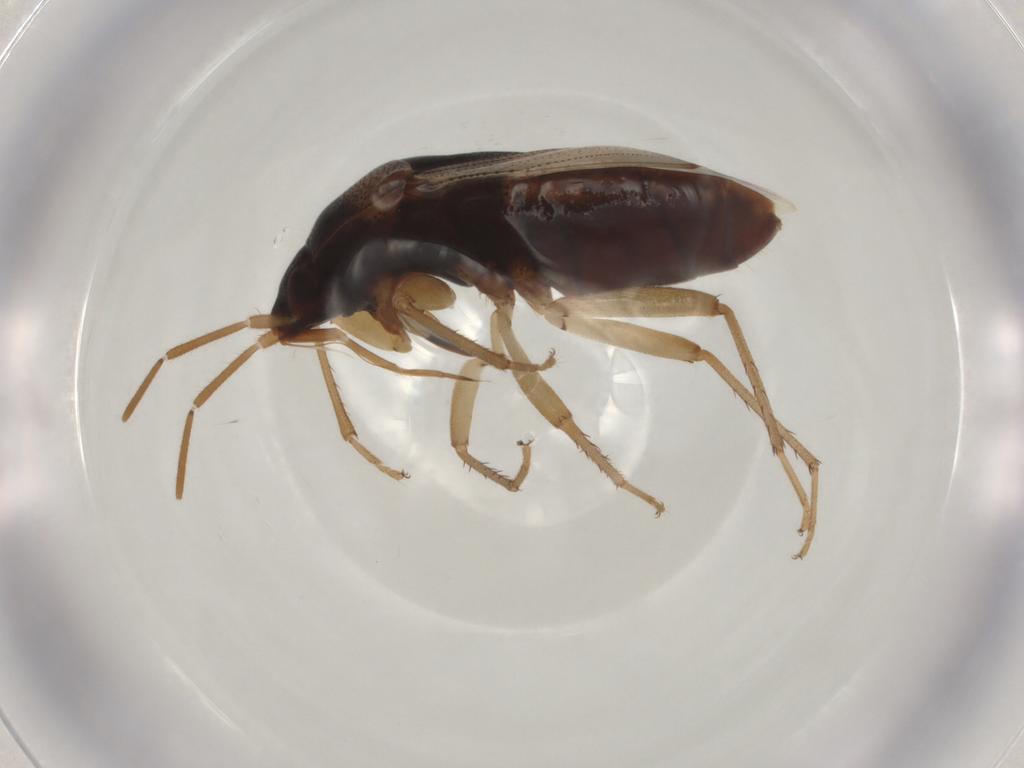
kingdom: Animalia
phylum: Arthropoda
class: Insecta
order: Hemiptera
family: Rhyparochromidae
